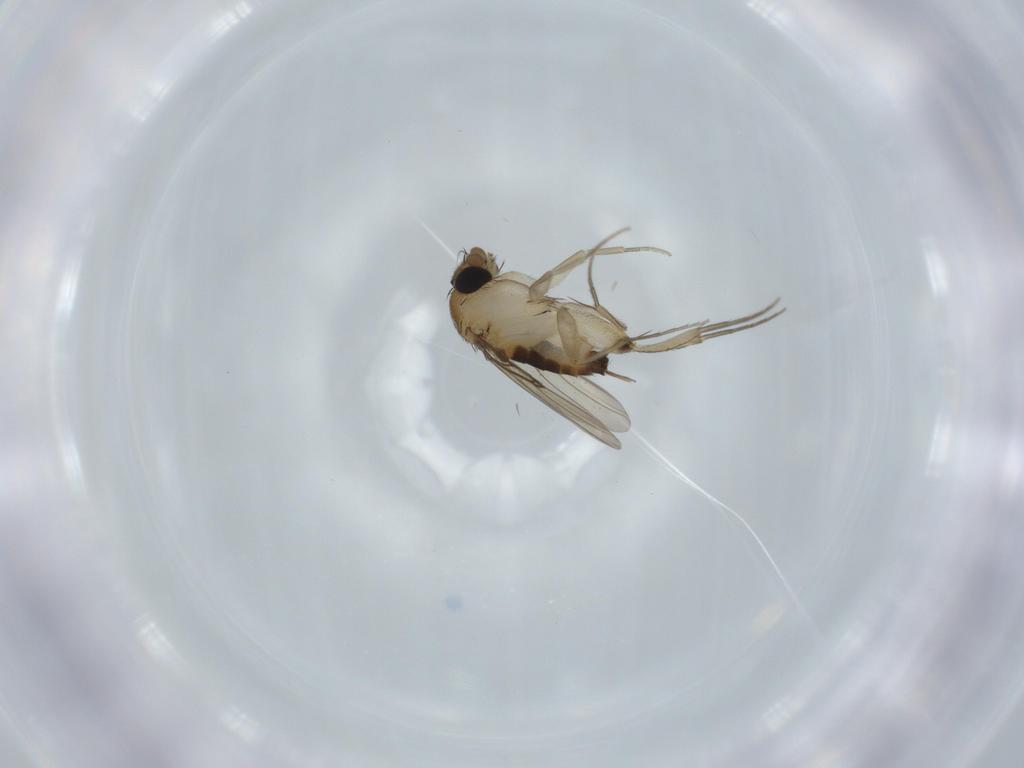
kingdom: Animalia
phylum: Arthropoda
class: Insecta
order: Diptera
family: Phoridae
